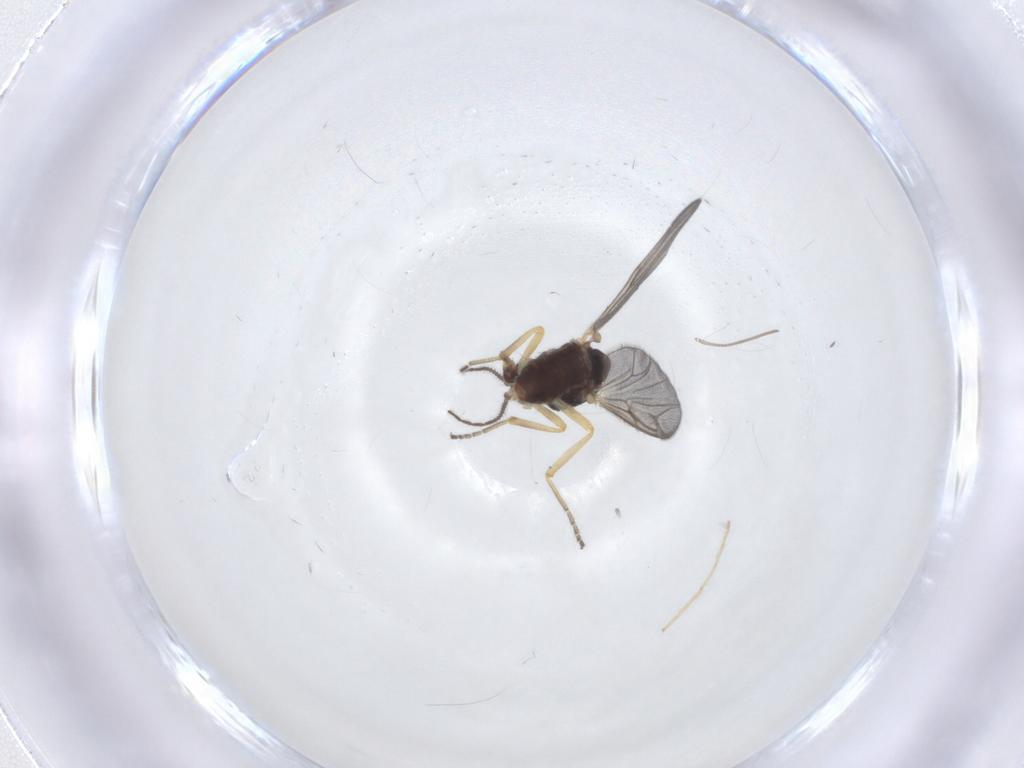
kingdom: Animalia
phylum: Arthropoda
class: Insecta
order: Diptera
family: Ceratopogonidae
